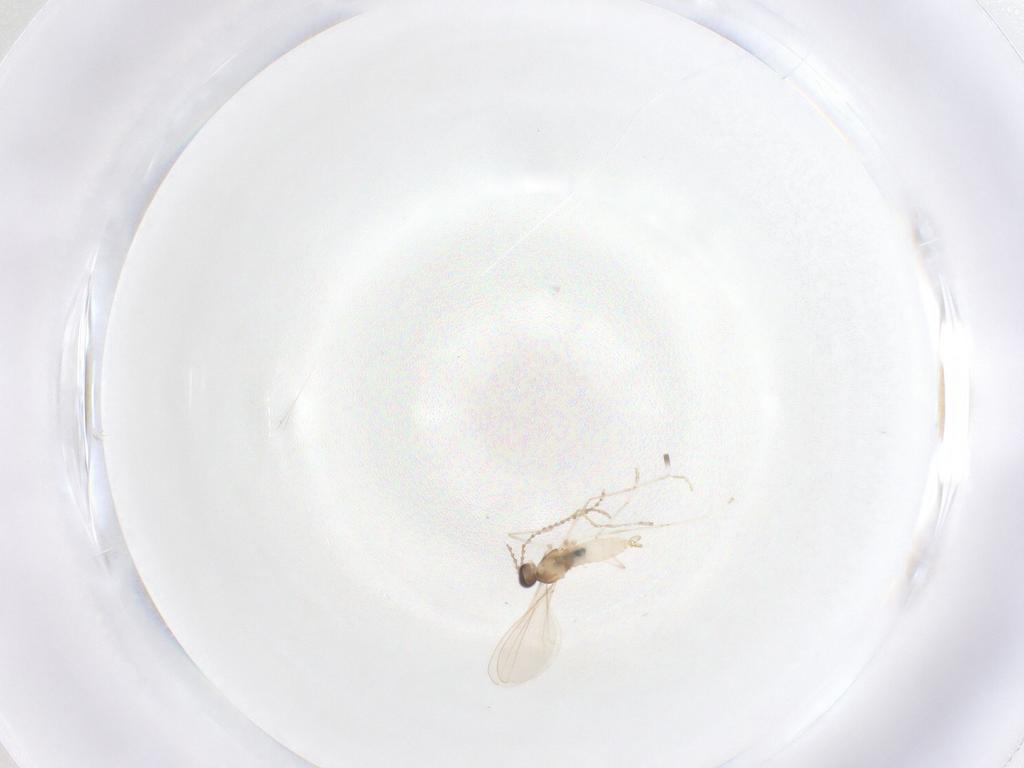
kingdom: Animalia
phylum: Arthropoda
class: Insecta
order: Diptera
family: Cecidomyiidae
